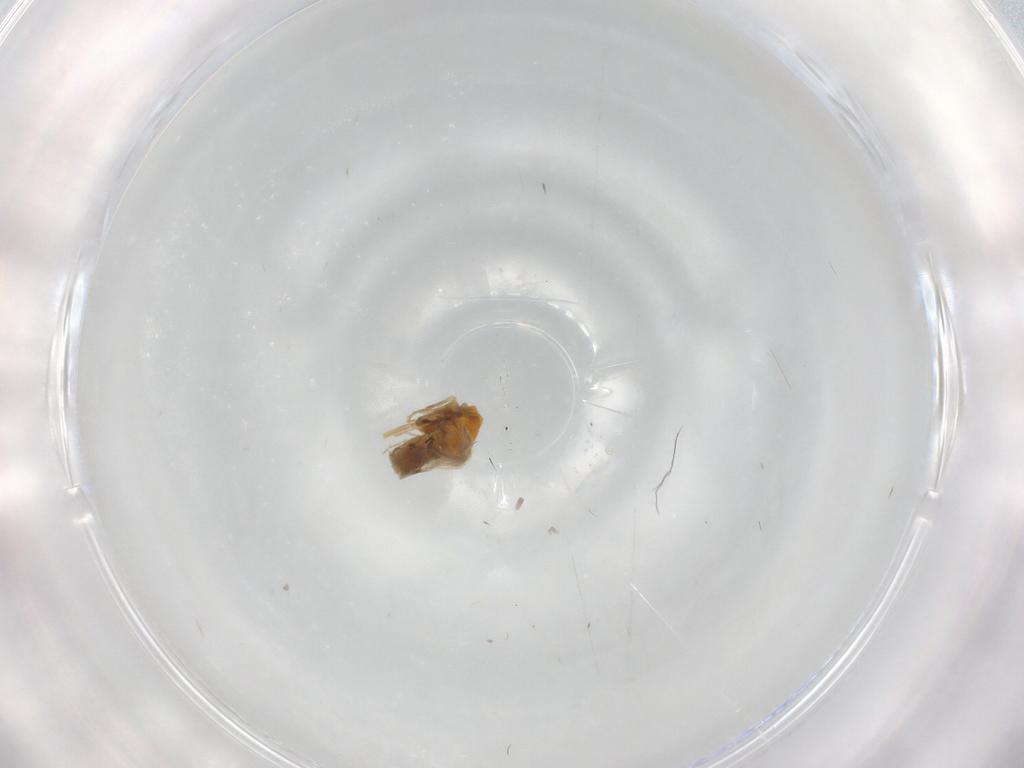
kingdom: Animalia
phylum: Arthropoda
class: Insecta
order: Hemiptera
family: Aleyrodidae
